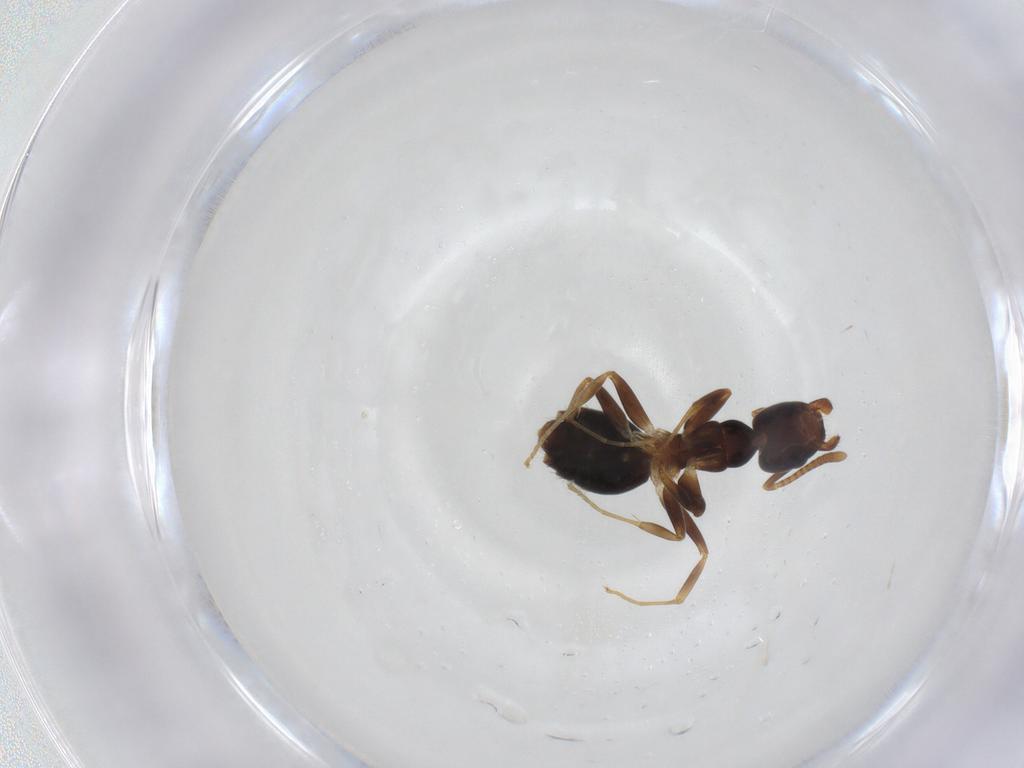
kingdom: Animalia
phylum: Arthropoda
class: Insecta
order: Hymenoptera
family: Formicidae
